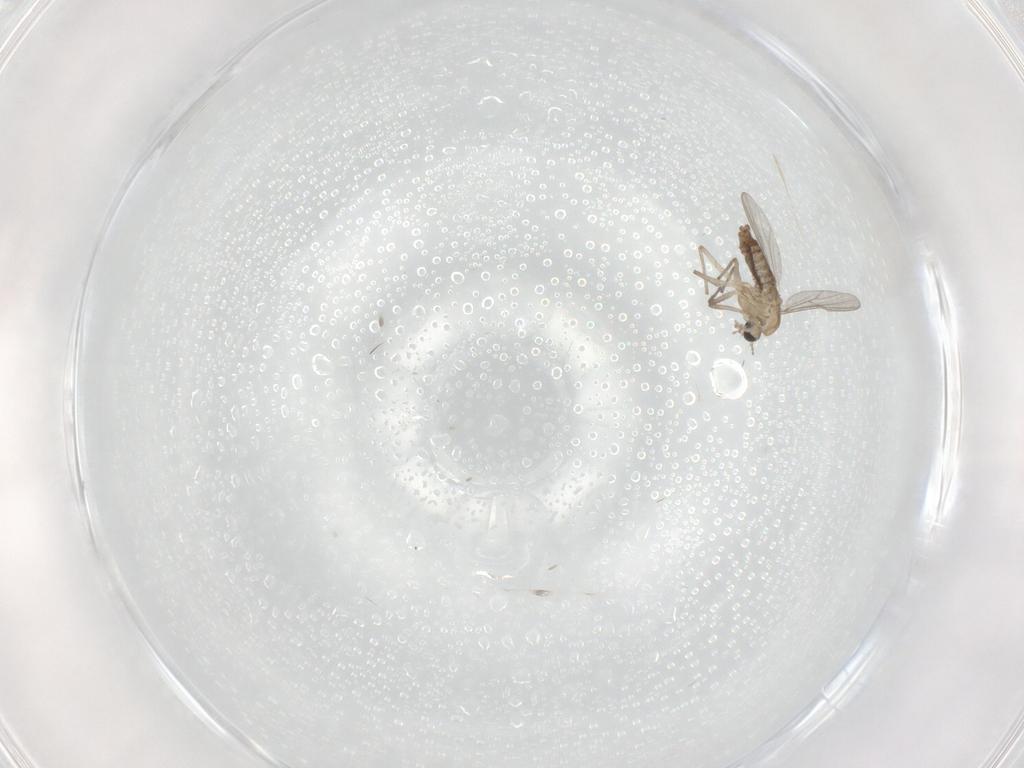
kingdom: Animalia
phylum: Arthropoda
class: Insecta
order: Diptera
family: Chironomidae
